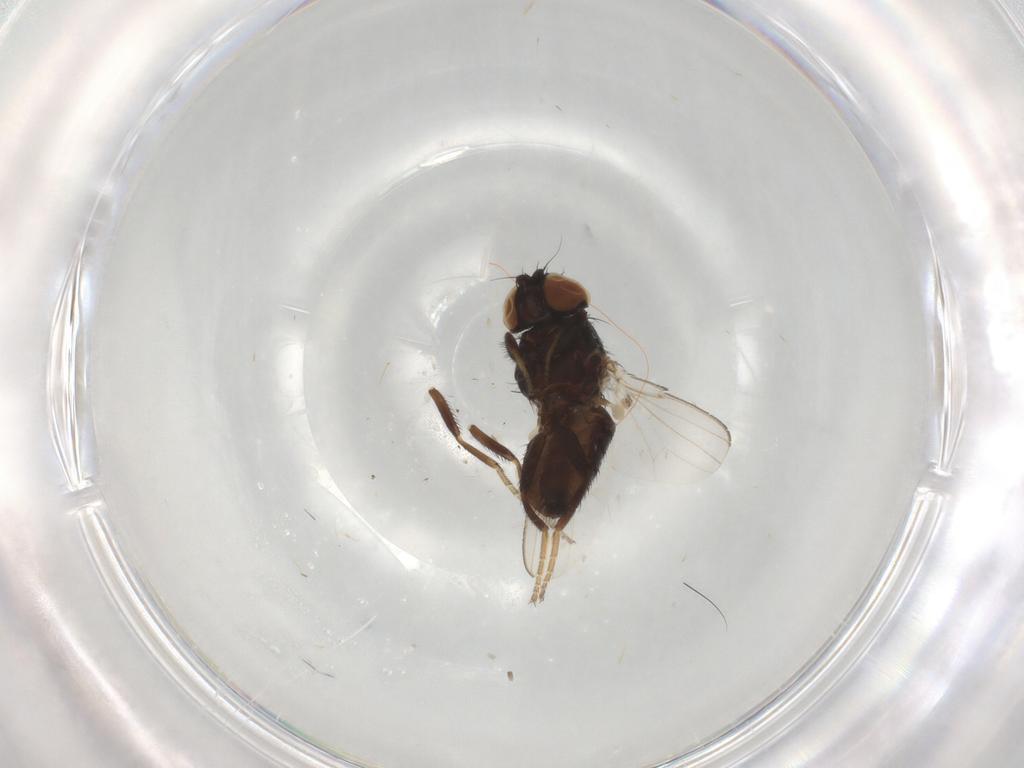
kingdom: Animalia
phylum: Arthropoda
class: Insecta
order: Diptera
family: Milichiidae
